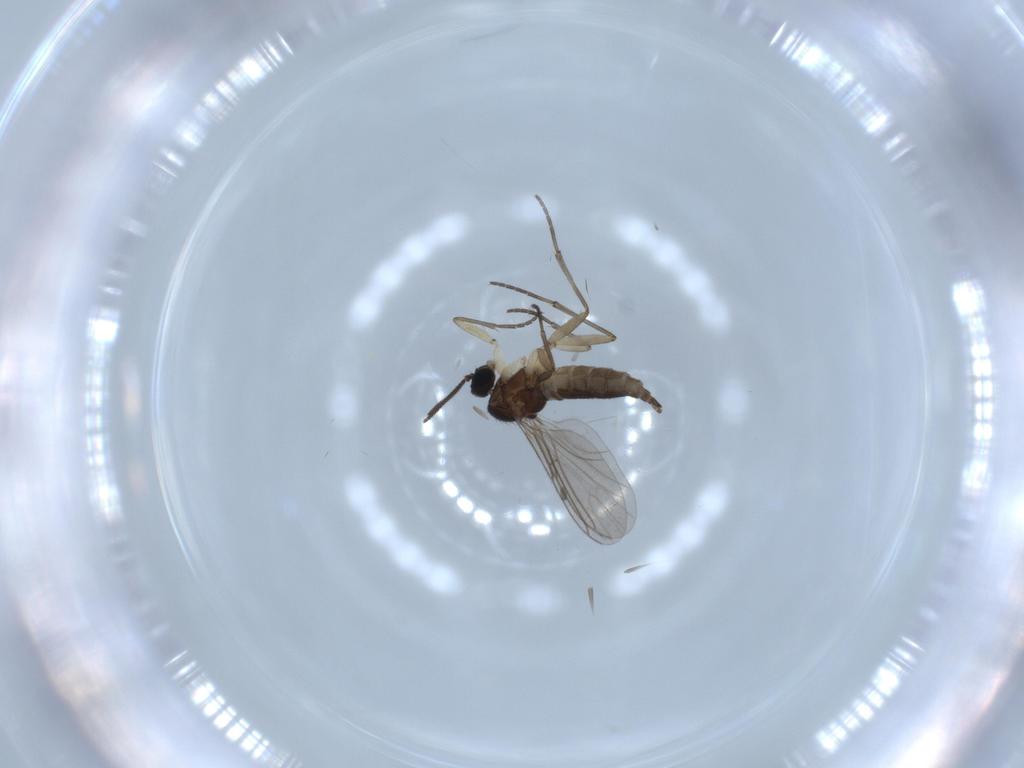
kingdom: Animalia
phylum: Arthropoda
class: Insecta
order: Diptera
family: Sciaridae
